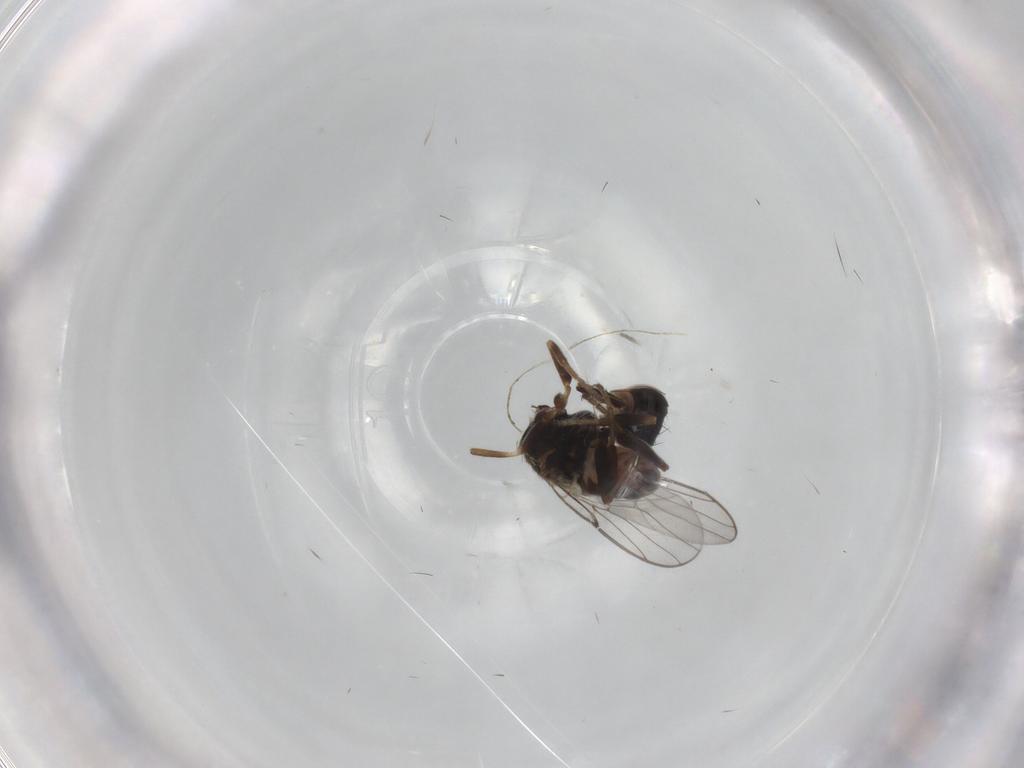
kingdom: Animalia
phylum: Arthropoda
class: Insecta
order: Diptera
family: Chloropidae
